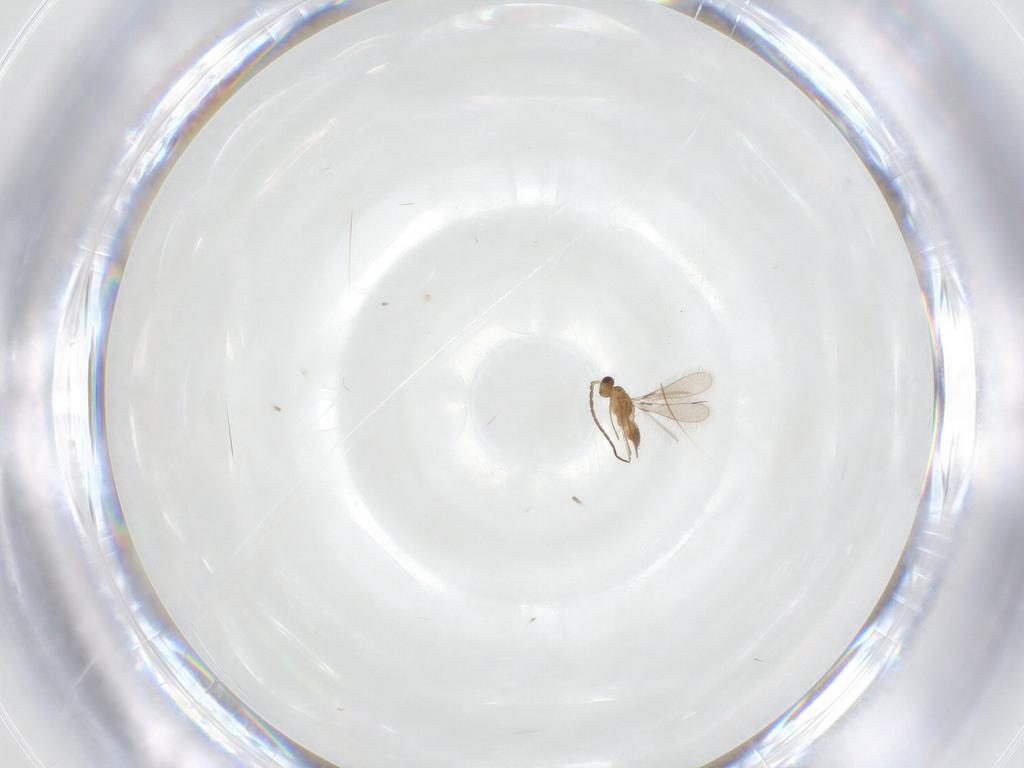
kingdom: Animalia
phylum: Arthropoda
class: Insecta
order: Hymenoptera
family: Mymaridae
